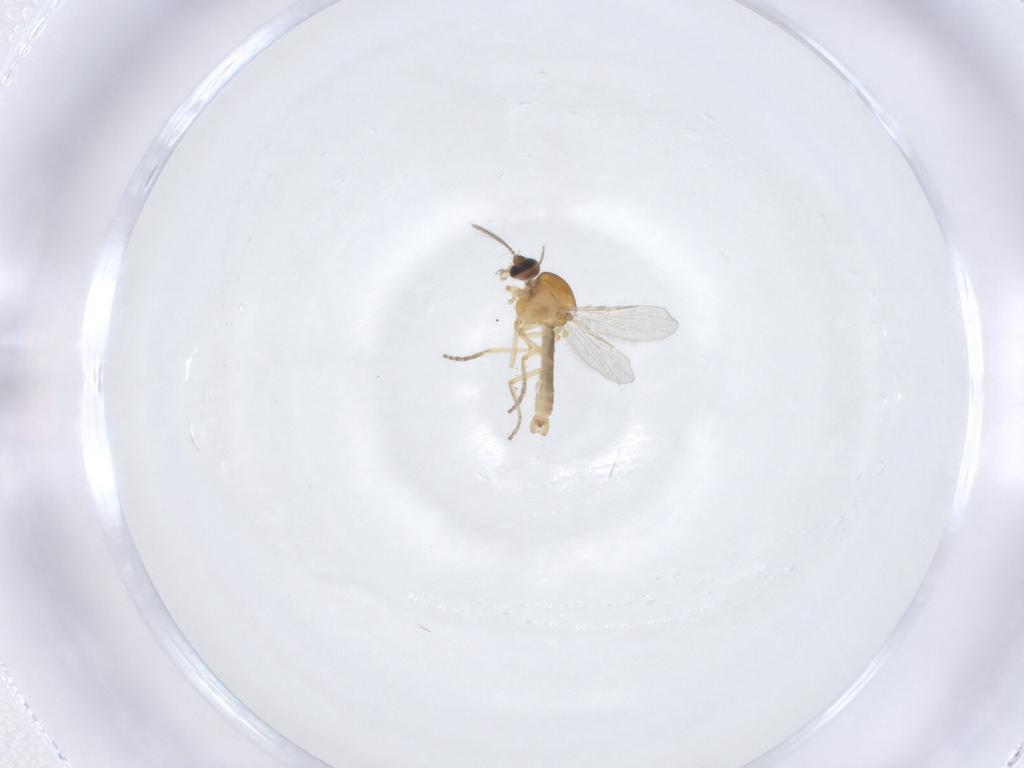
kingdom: Animalia
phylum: Arthropoda
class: Insecta
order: Diptera
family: Ceratopogonidae
